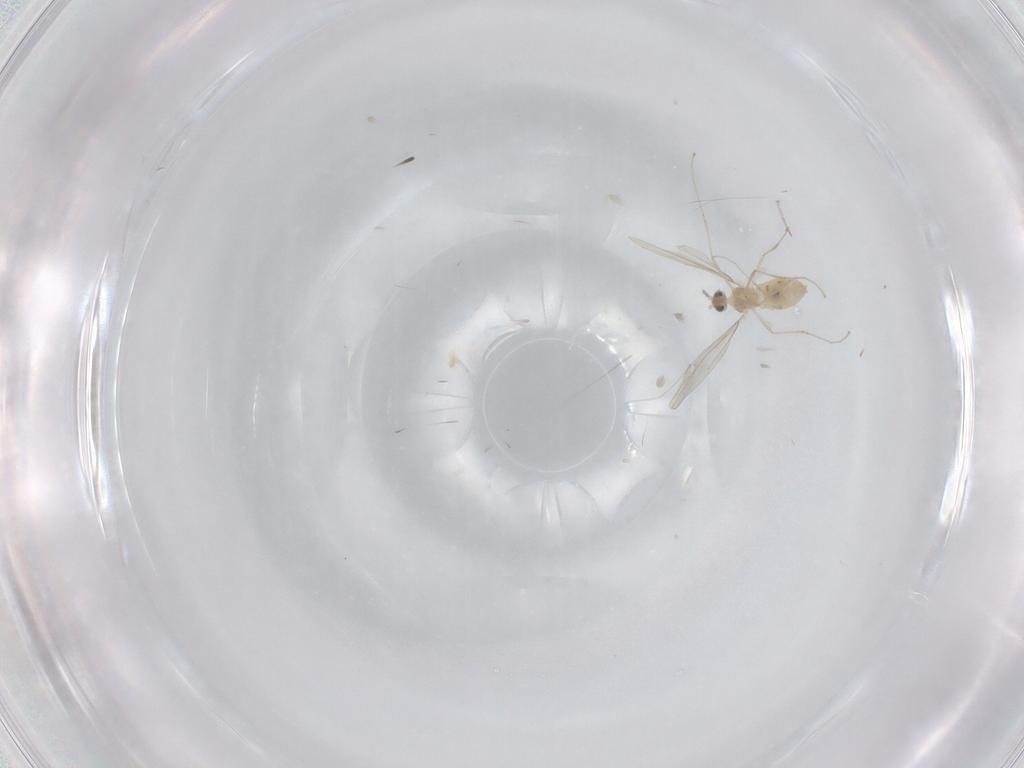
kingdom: Animalia
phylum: Arthropoda
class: Insecta
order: Diptera
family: Cecidomyiidae
